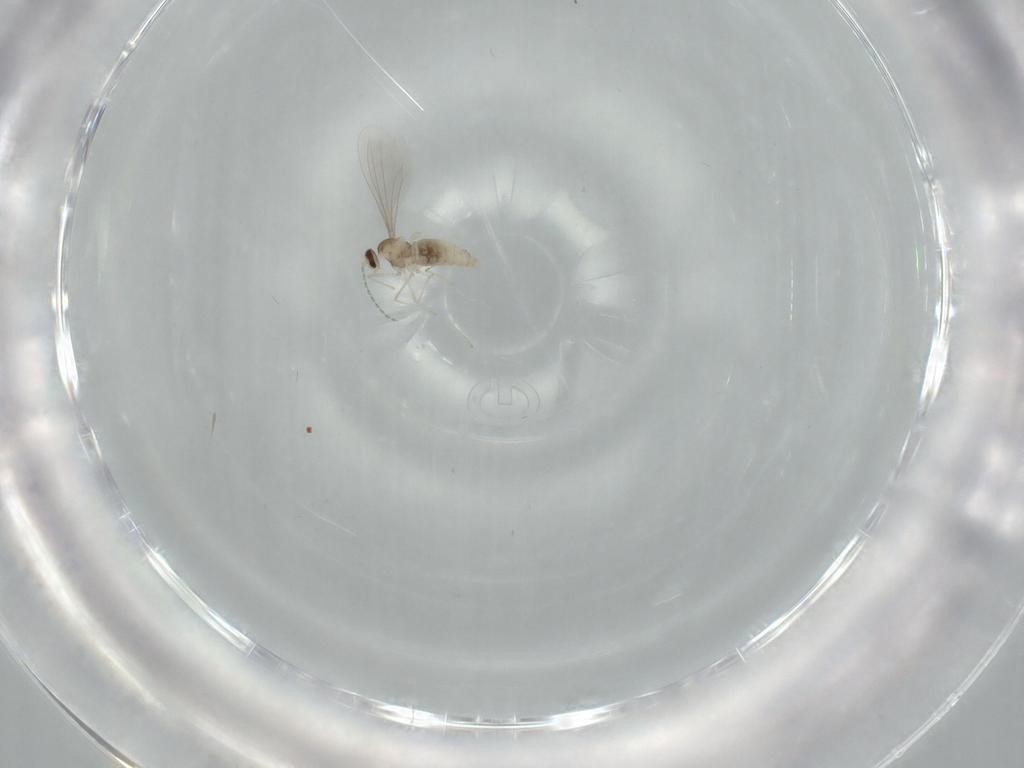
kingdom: Animalia
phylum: Arthropoda
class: Insecta
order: Diptera
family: Cecidomyiidae
